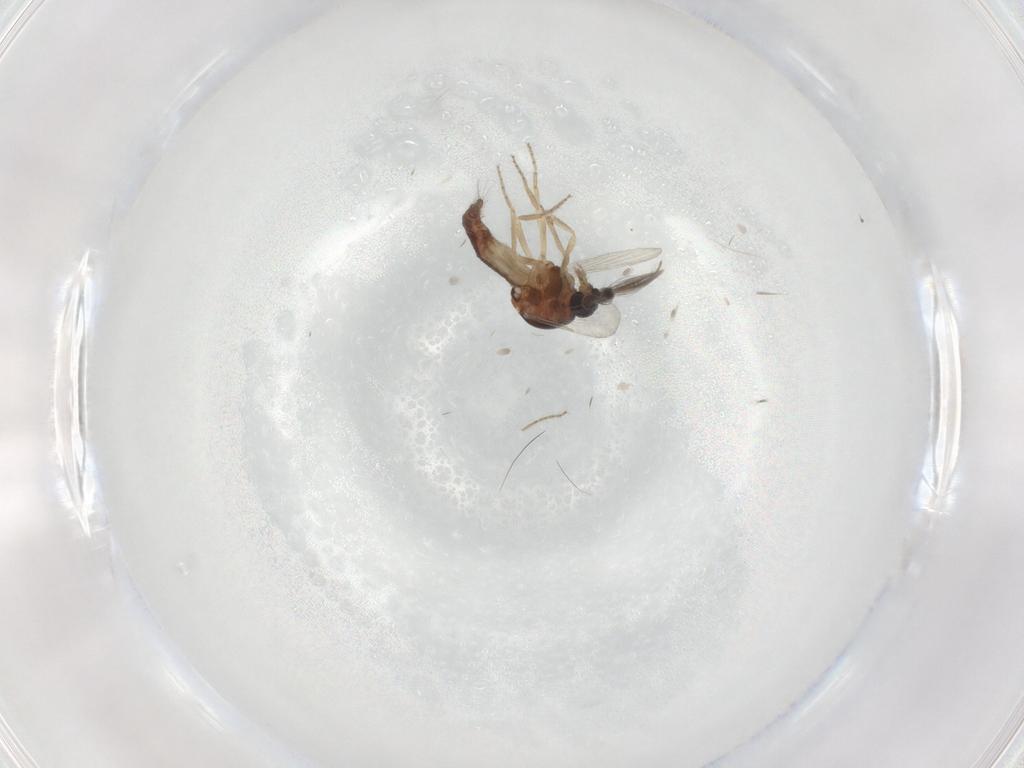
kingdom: Animalia
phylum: Arthropoda
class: Insecta
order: Diptera
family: Ceratopogonidae
